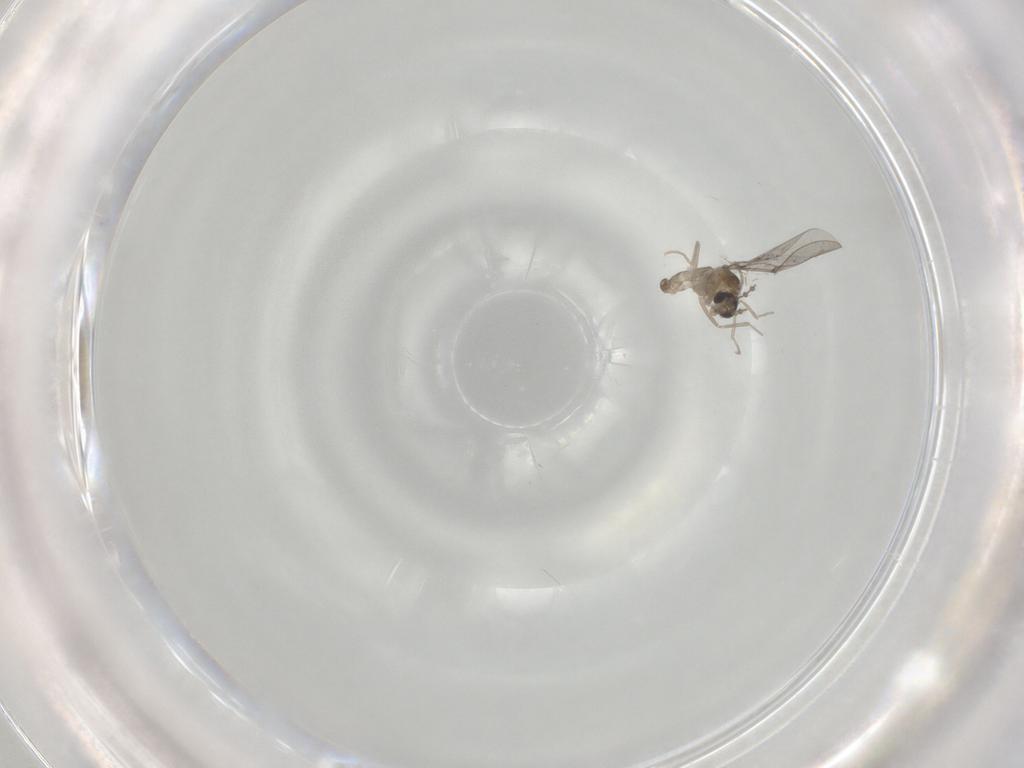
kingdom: Animalia
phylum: Arthropoda
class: Insecta
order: Diptera
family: Cecidomyiidae
